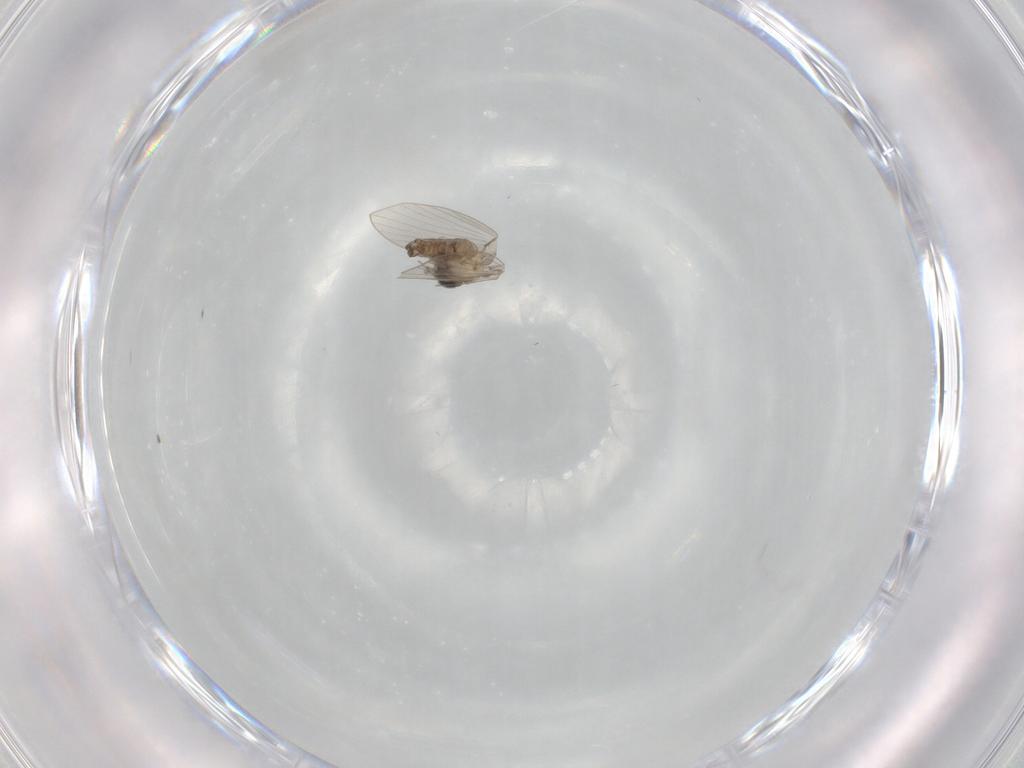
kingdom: Animalia
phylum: Arthropoda
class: Insecta
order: Diptera
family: Psychodidae
